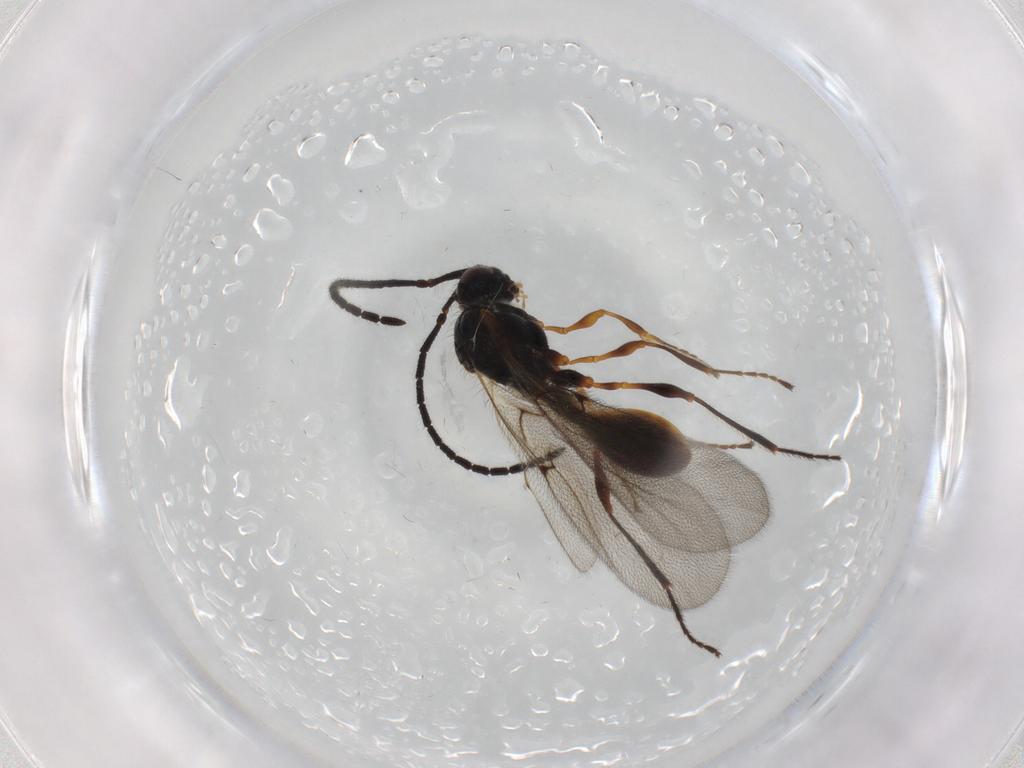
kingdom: Animalia
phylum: Arthropoda
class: Insecta
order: Hymenoptera
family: Diapriidae
